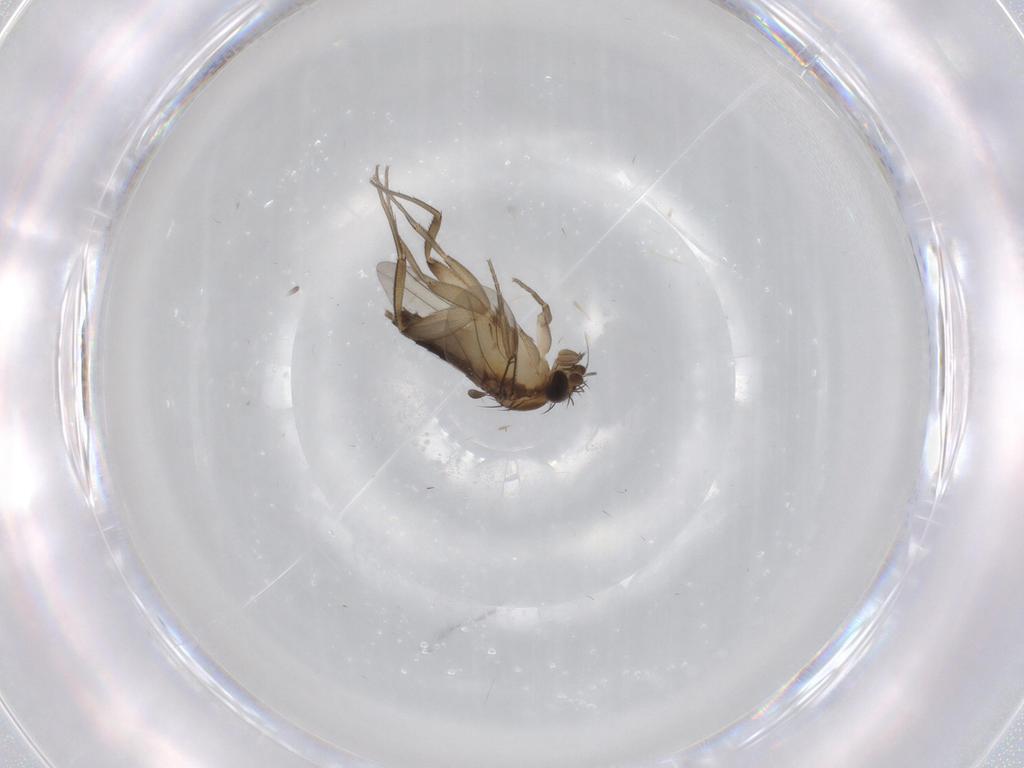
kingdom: Animalia
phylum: Arthropoda
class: Insecta
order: Diptera
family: Phoridae
